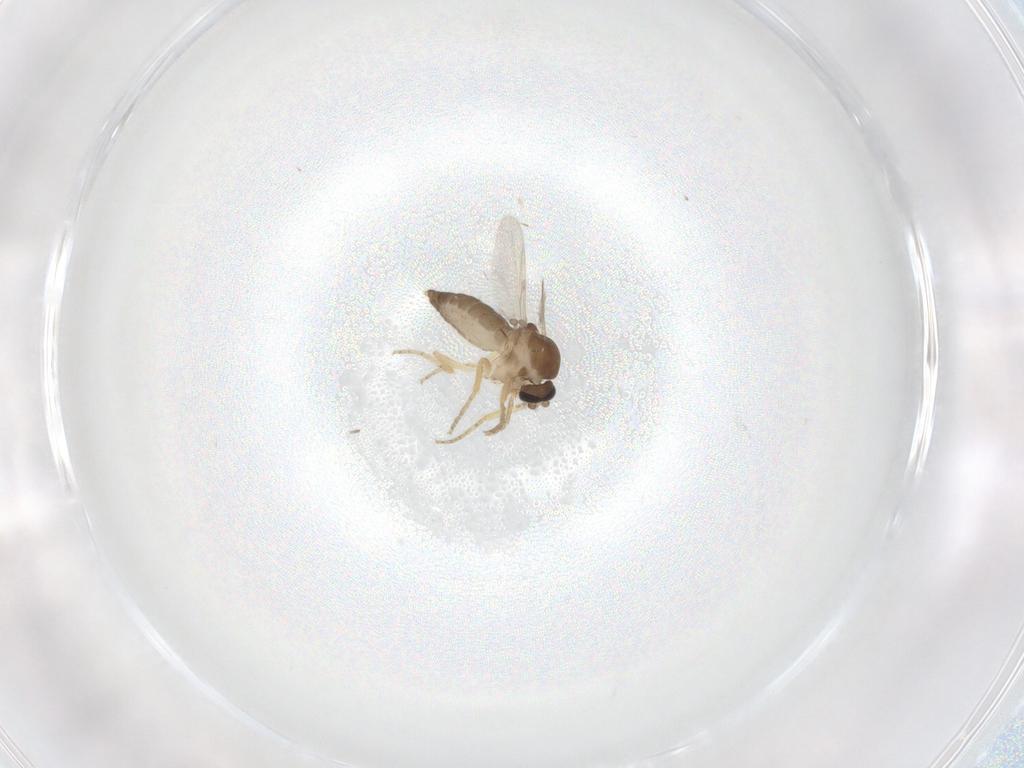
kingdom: Animalia
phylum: Arthropoda
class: Insecta
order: Diptera
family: Ceratopogonidae
